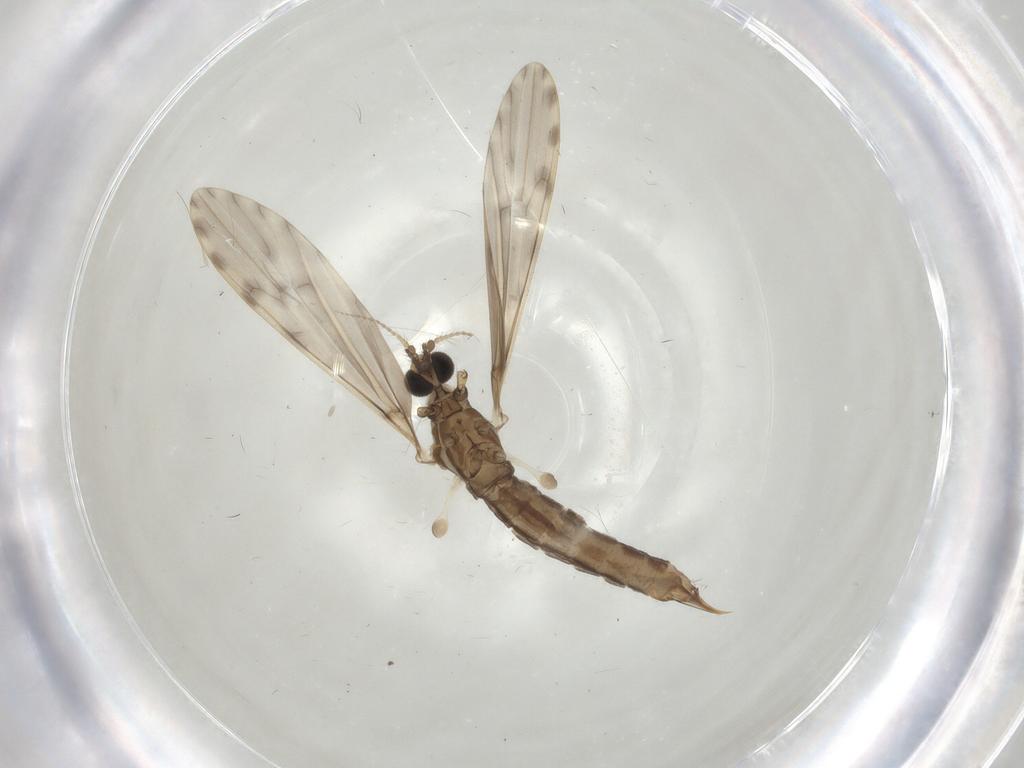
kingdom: Animalia
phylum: Arthropoda
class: Insecta
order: Diptera
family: Limoniidae
